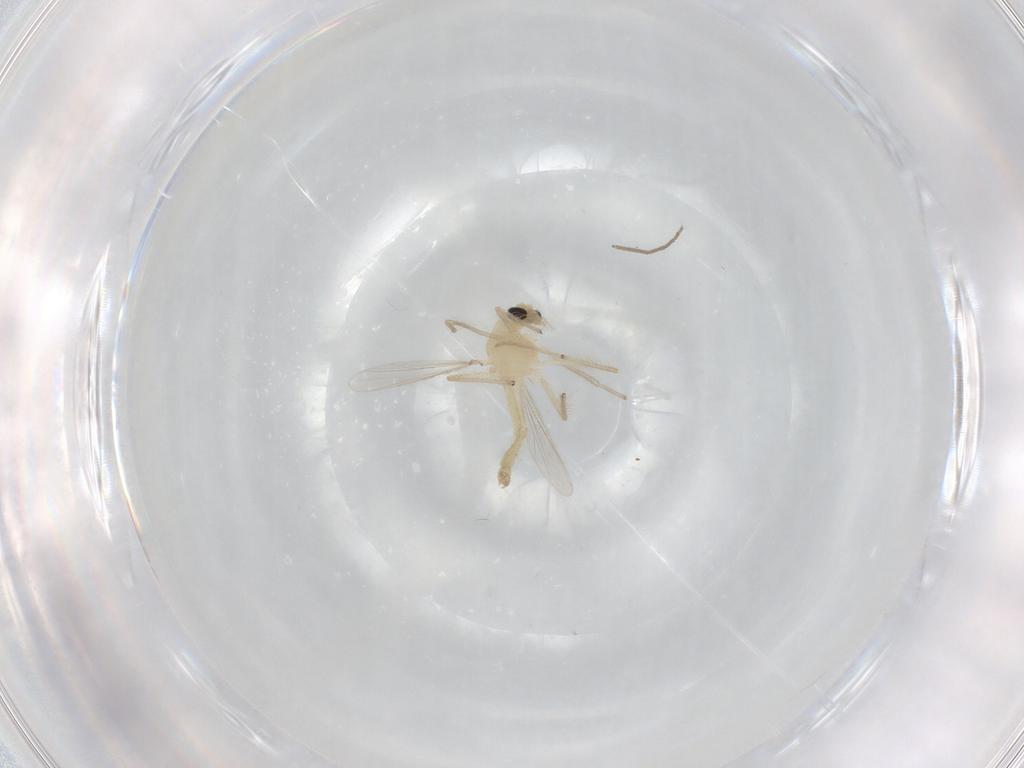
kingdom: Animalia
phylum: Arthropoda
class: Insecta
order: Diptera
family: Chironomidae
